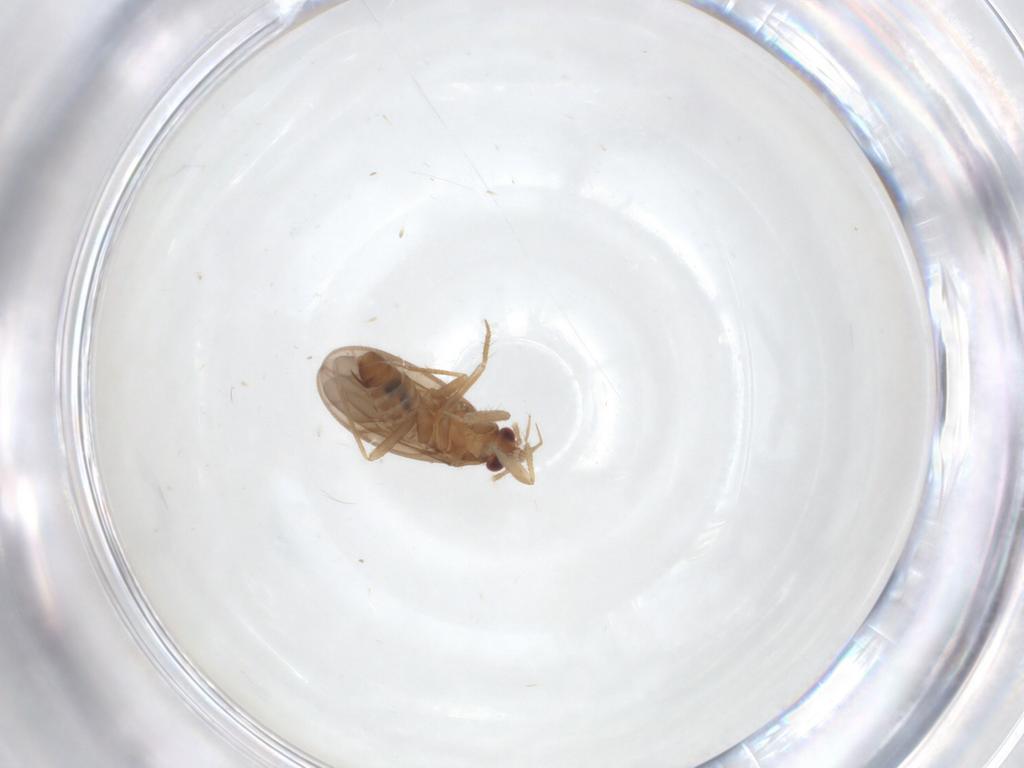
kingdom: Animalia
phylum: Arthropoda
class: Insecta
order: Hemiptera
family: Ceratocombidae
